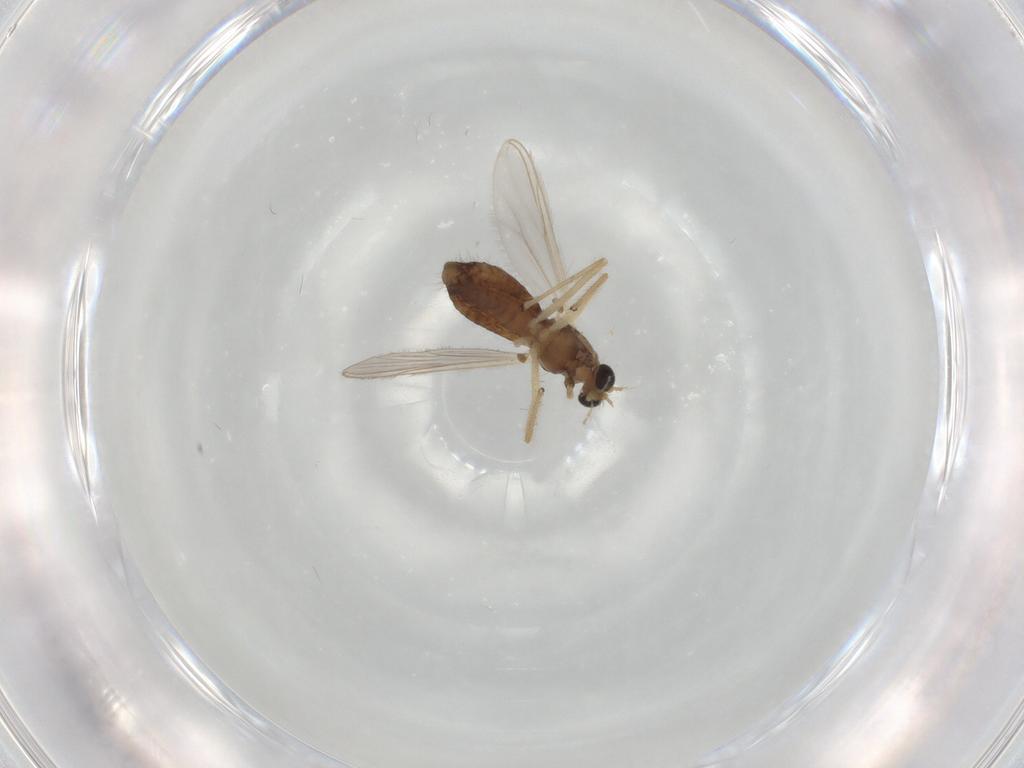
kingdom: Animalia
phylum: Arthropoda
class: Insecta
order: Diptera
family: Chironomidae
